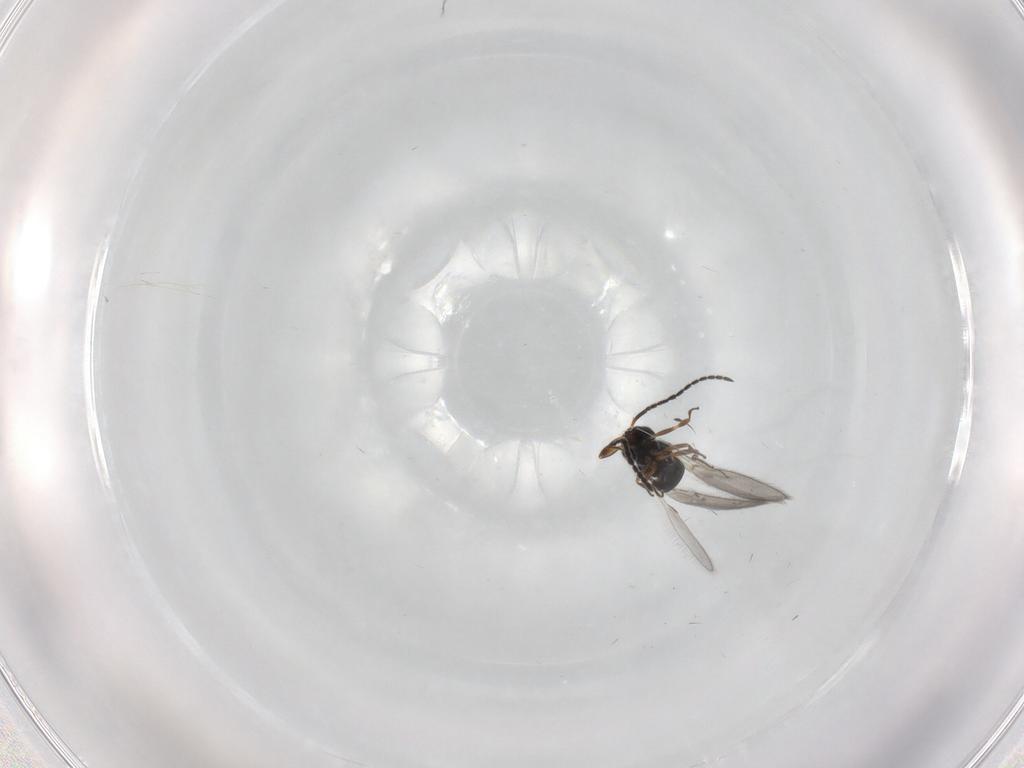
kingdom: Animalia
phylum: Arthropoda
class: Insecta
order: Hymenoptera
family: Scelionidae
